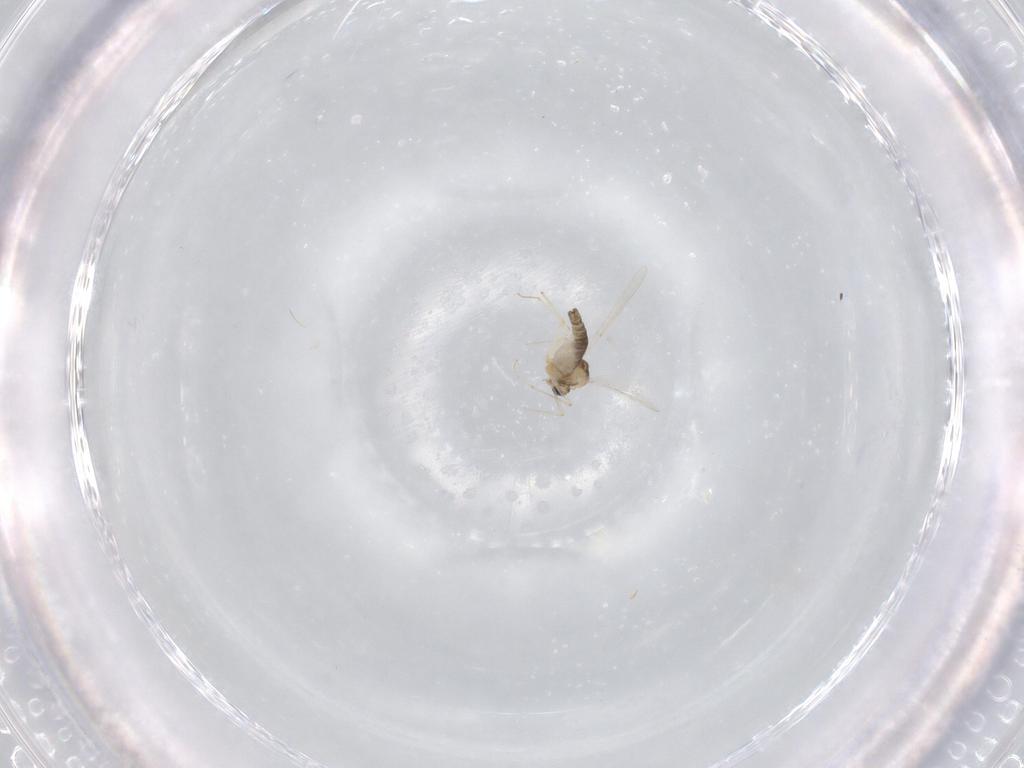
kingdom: Animalia
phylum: Arthropoda
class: Insecta
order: Diptera
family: Chironomidae
